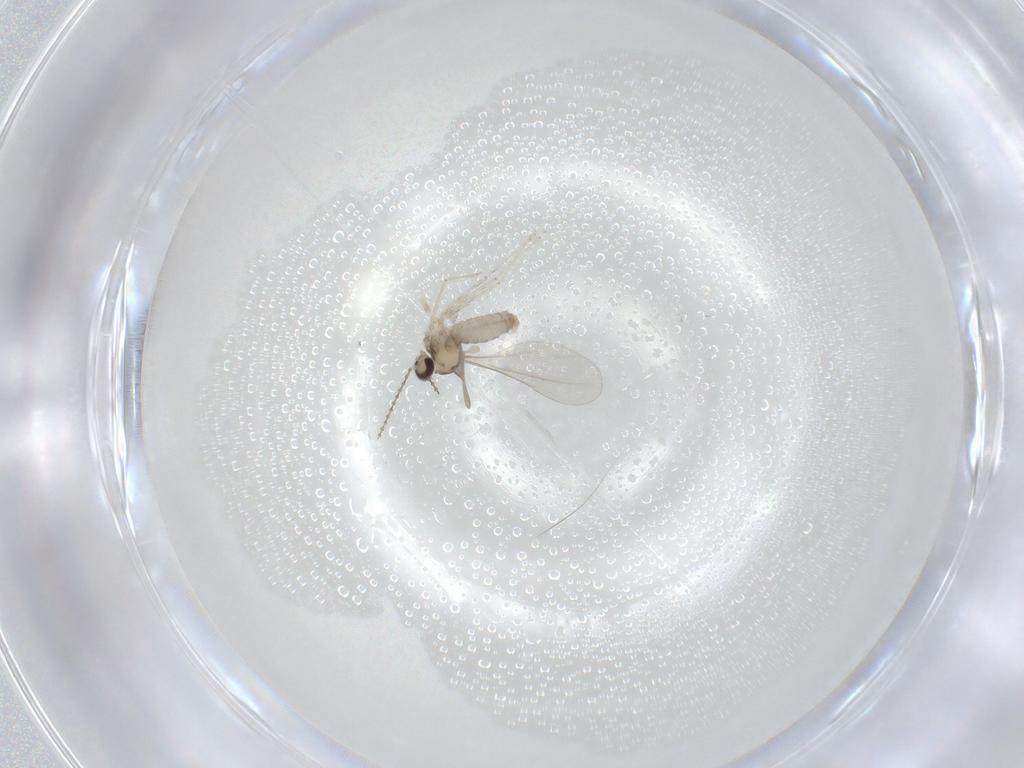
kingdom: Animalia
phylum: Arthropoda
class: Insecta
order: Diptera
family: Cecidomyiidae
